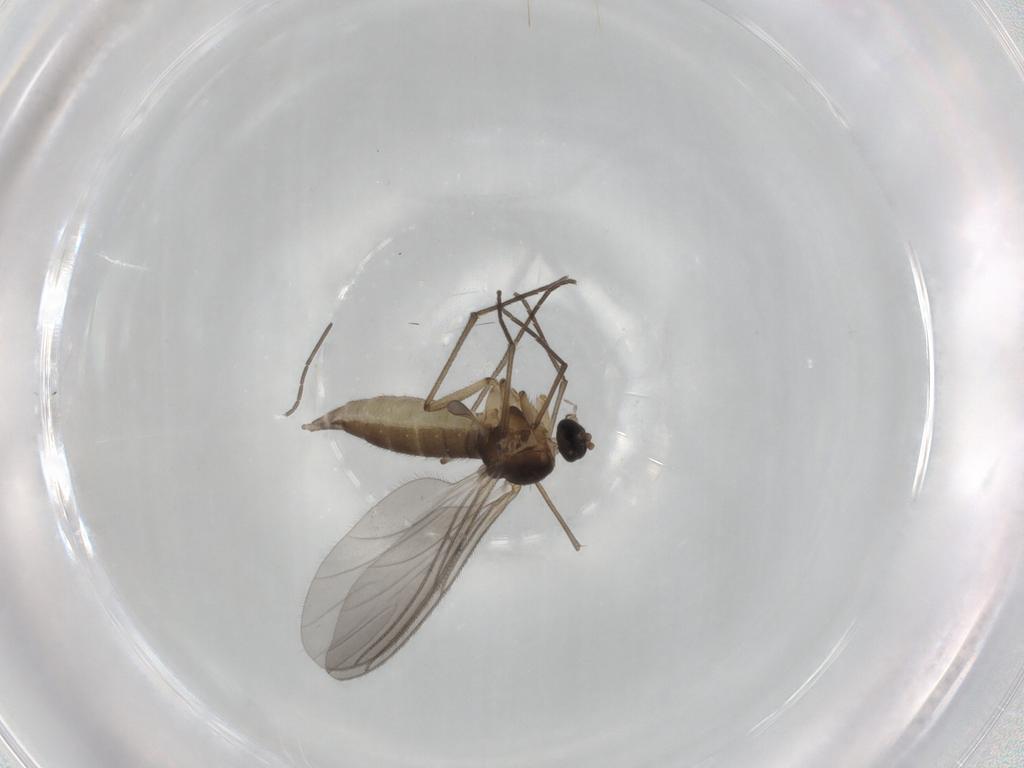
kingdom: Animalia
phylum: Arthropoda
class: Insecta
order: Diptera
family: Sciaridae
